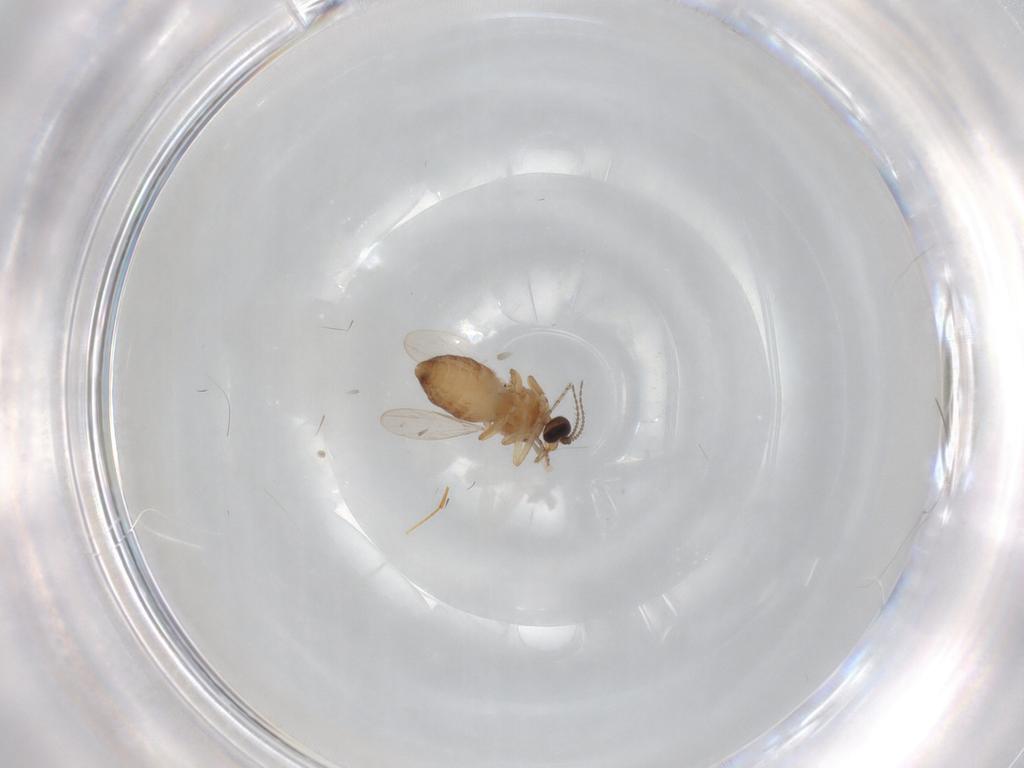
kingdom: Animalia
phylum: Arthropoda
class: Insecta
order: Diptera
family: Ceratopogonidae
